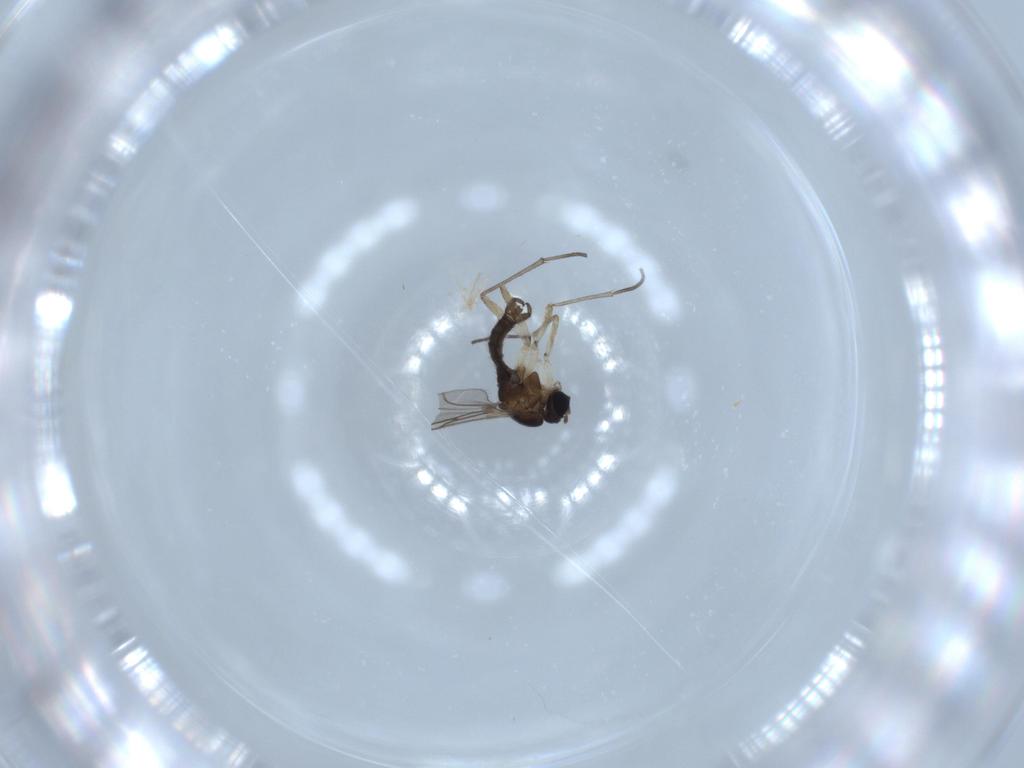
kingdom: Animalia
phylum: Arthropoda
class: Insecta
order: Diptera
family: Sciaridae
